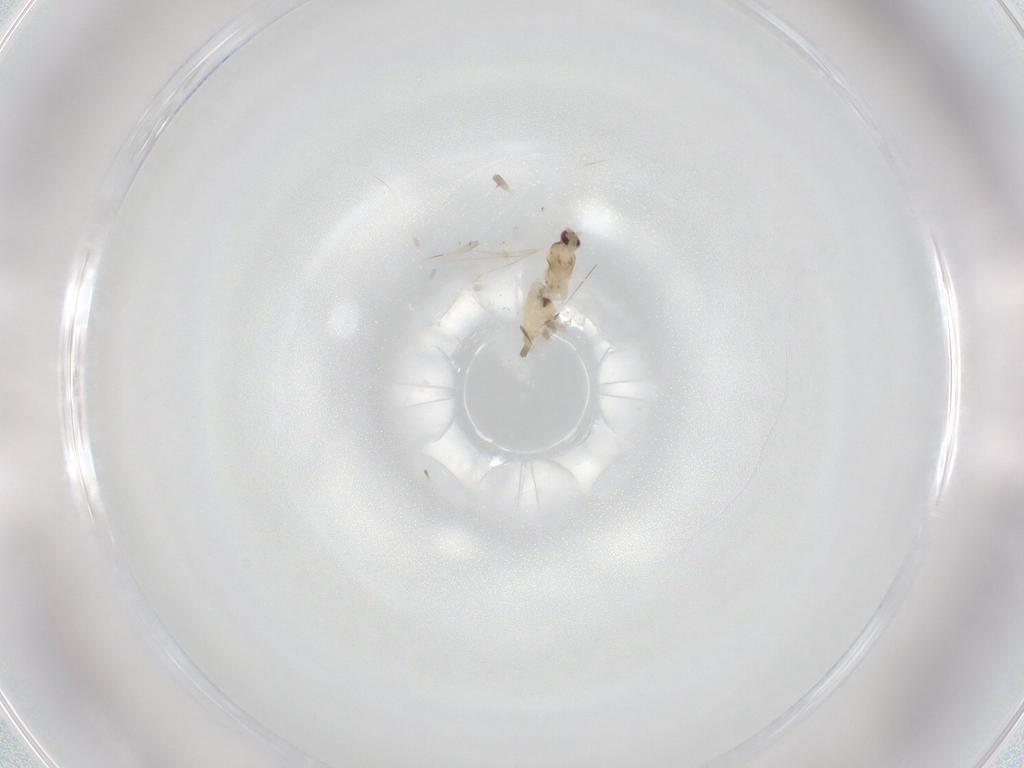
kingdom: Animalia
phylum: Arthropoda
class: Insecta
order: Diptera
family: Cecidomyiidae
